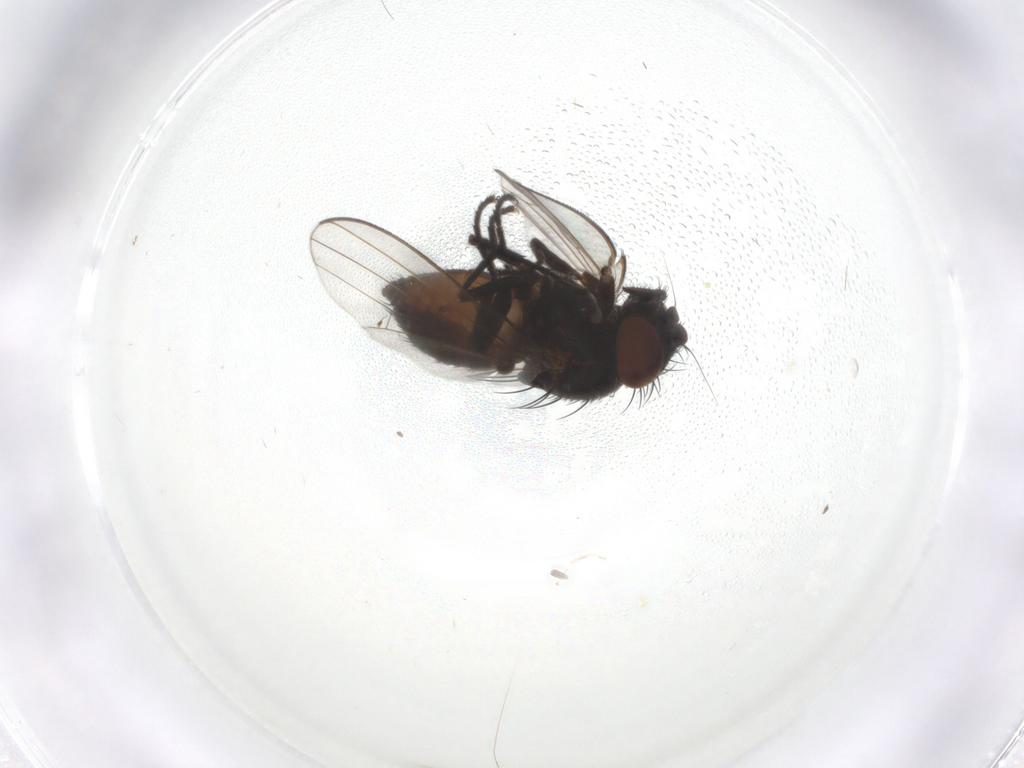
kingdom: Animalia
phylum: Arthropoda
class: Insecta
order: Diptera
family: Milichiidae
